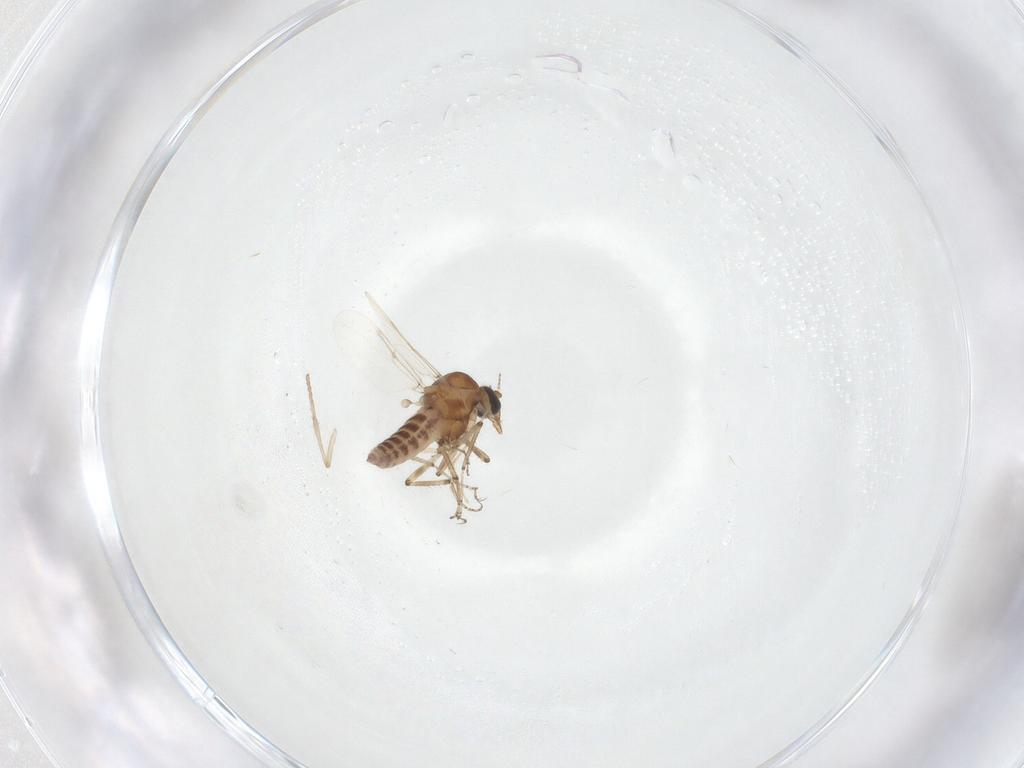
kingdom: Animalia
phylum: Arthropoda
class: Insecta
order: Diptera
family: Ceratopogonidae
